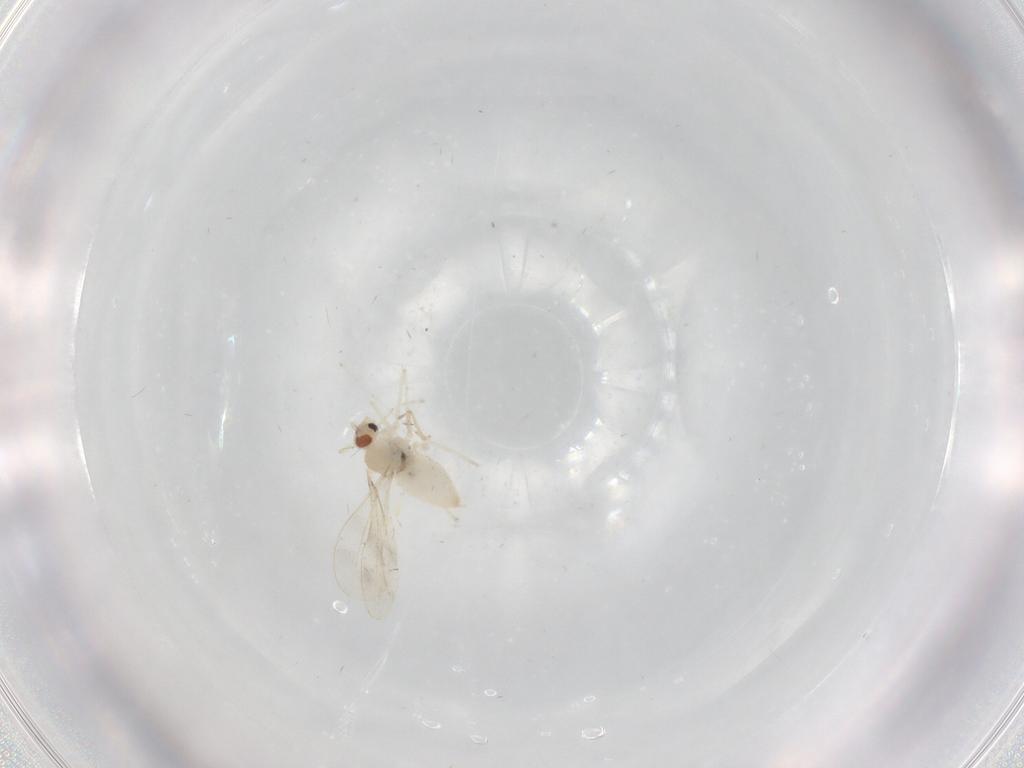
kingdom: Animalia
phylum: Arthropoda
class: Insecta
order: Diptera
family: Cecidomyiidae
